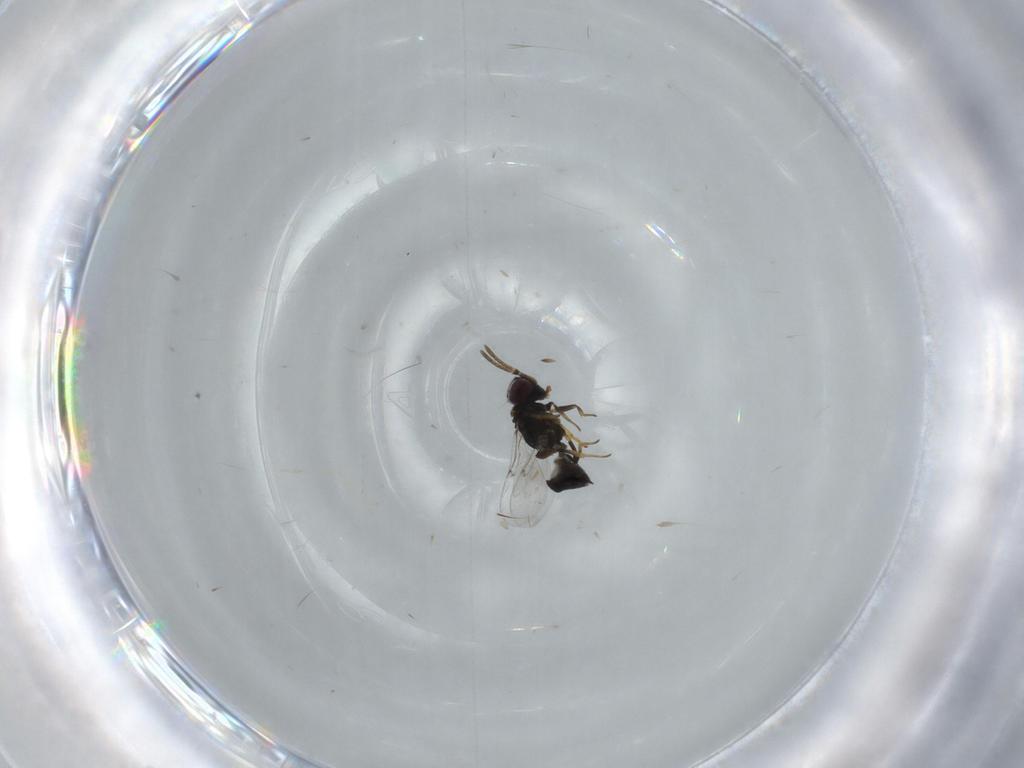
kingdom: Animalia
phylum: Arthropoda
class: Insecta
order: Hymenoptera
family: Encyrtidae
